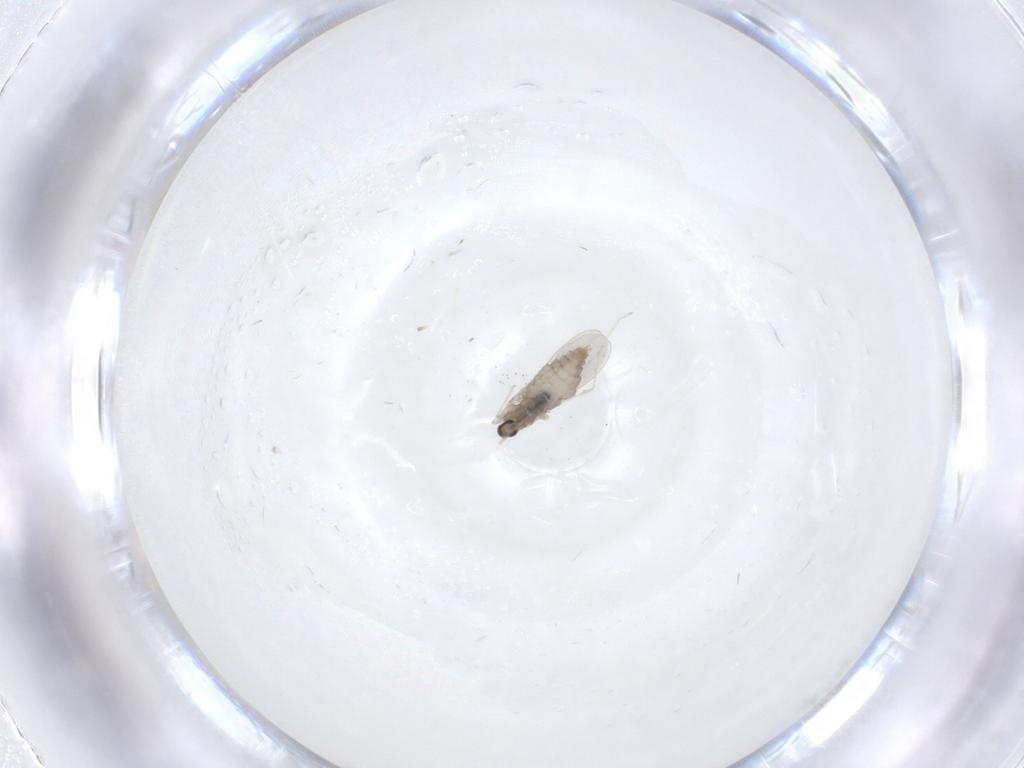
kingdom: Animalia
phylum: Arthropoda
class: Insecta
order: Diptera
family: Cecidomyiidae
